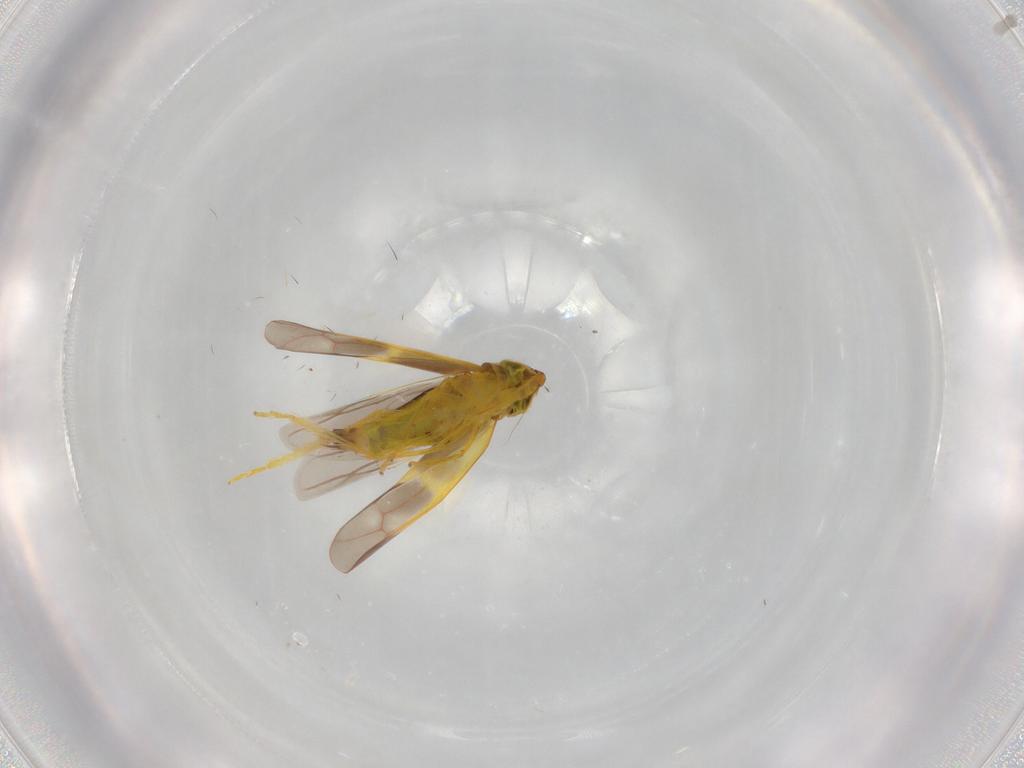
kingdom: Animalia
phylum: Arthropoda
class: Insecta
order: Hemiptera
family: Cicadellidae
